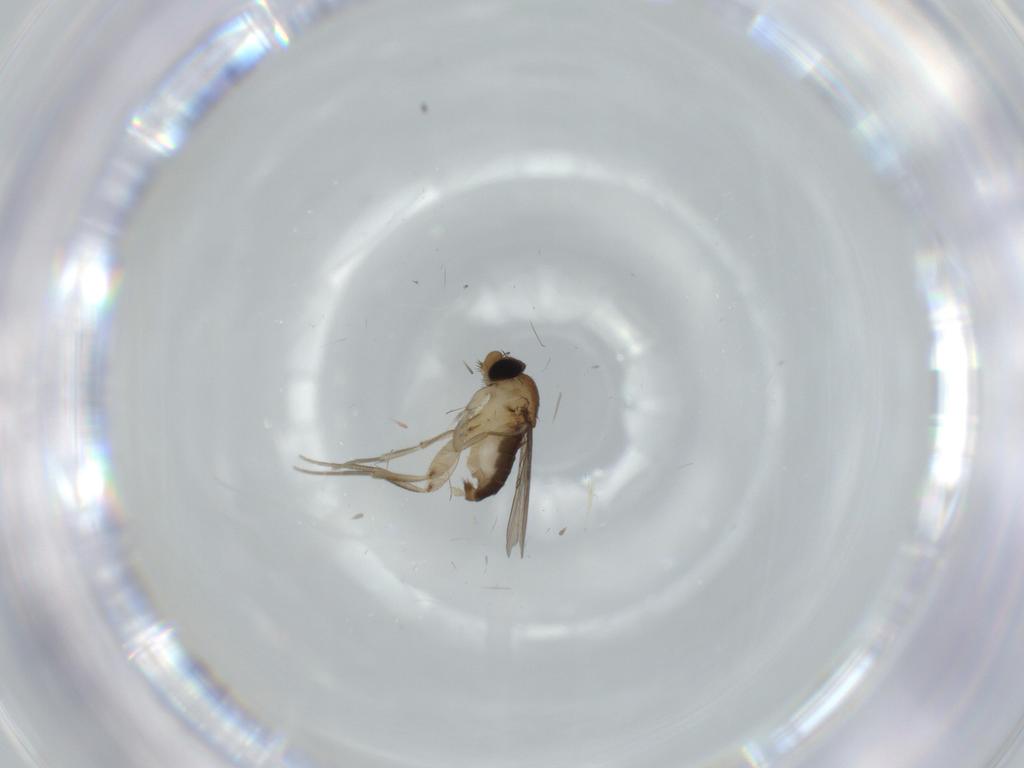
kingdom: Animalia
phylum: Arthropoda
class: Insecta
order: Diptera
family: Phoridae
